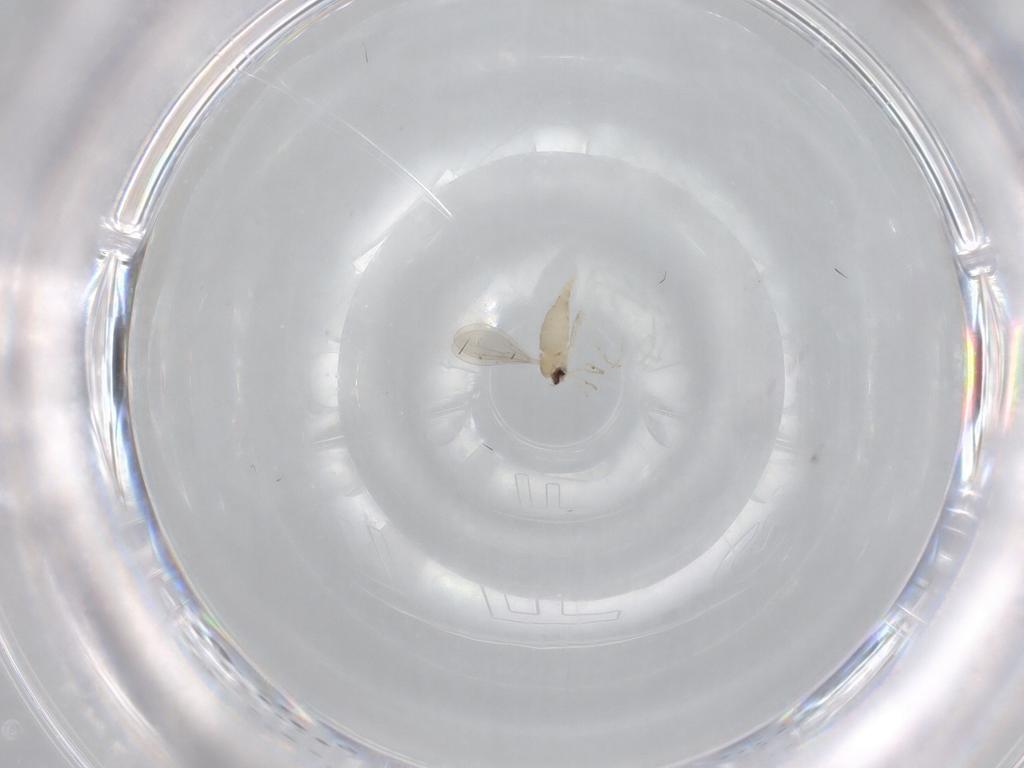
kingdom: Animalia
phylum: Arthropoda
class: Insecta
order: Diptera
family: Cecidomyiidae
